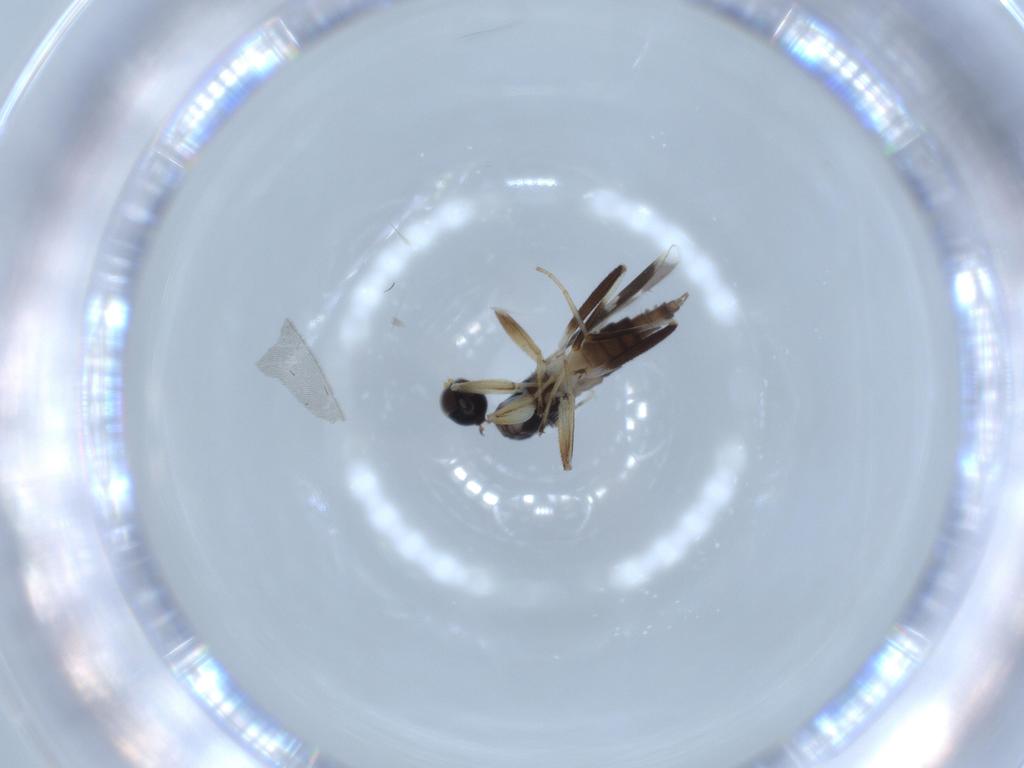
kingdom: Animalia
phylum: Arthropoda
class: Insecta
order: Diptera
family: Hybotidae
